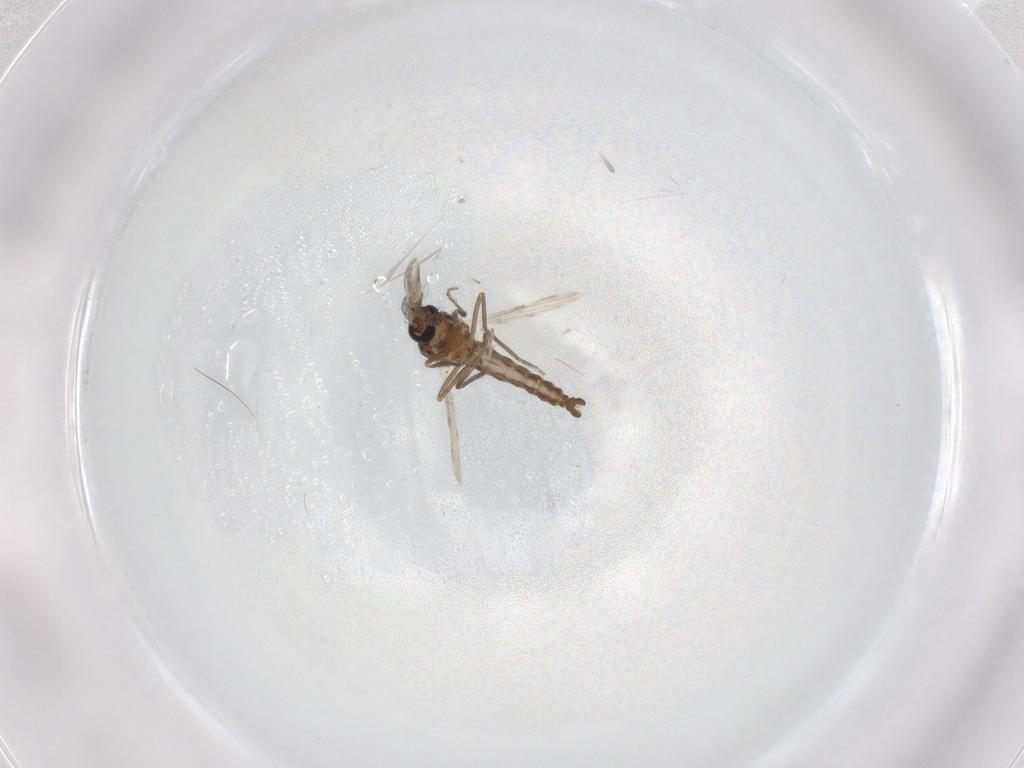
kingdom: Animalia
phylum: Arthropoda
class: Insecta
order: Diptera
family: Ceratopogonidae
